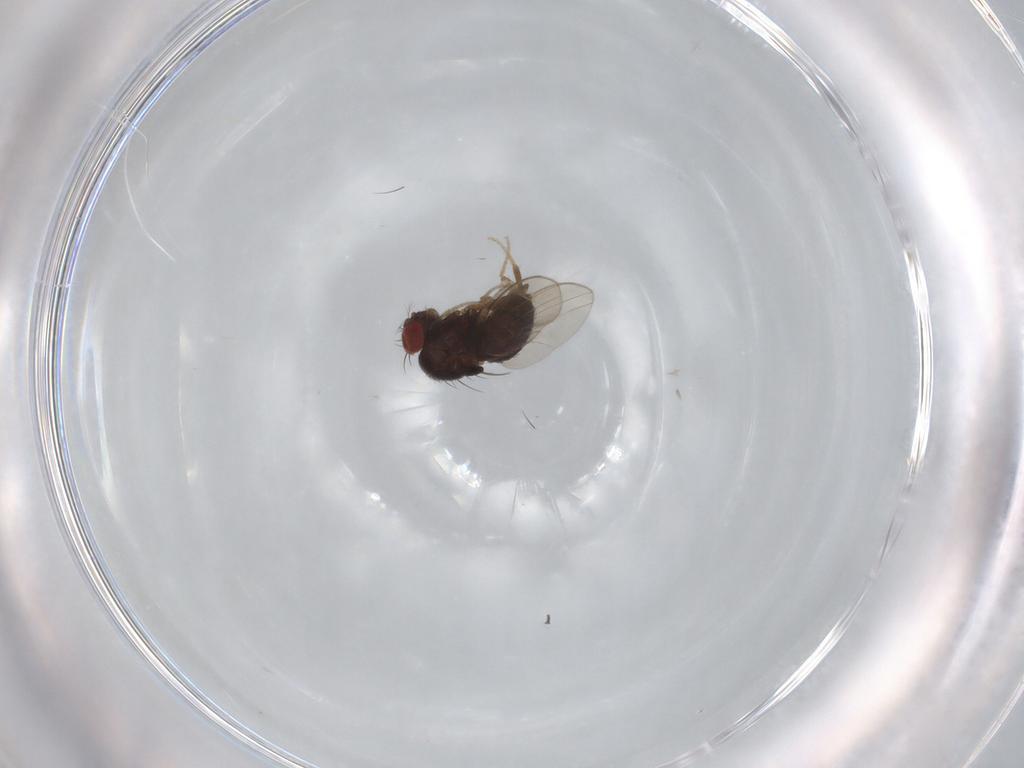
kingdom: Animalia
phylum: Arthropoda
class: Insecta
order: Diptera
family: Drosophilidae
